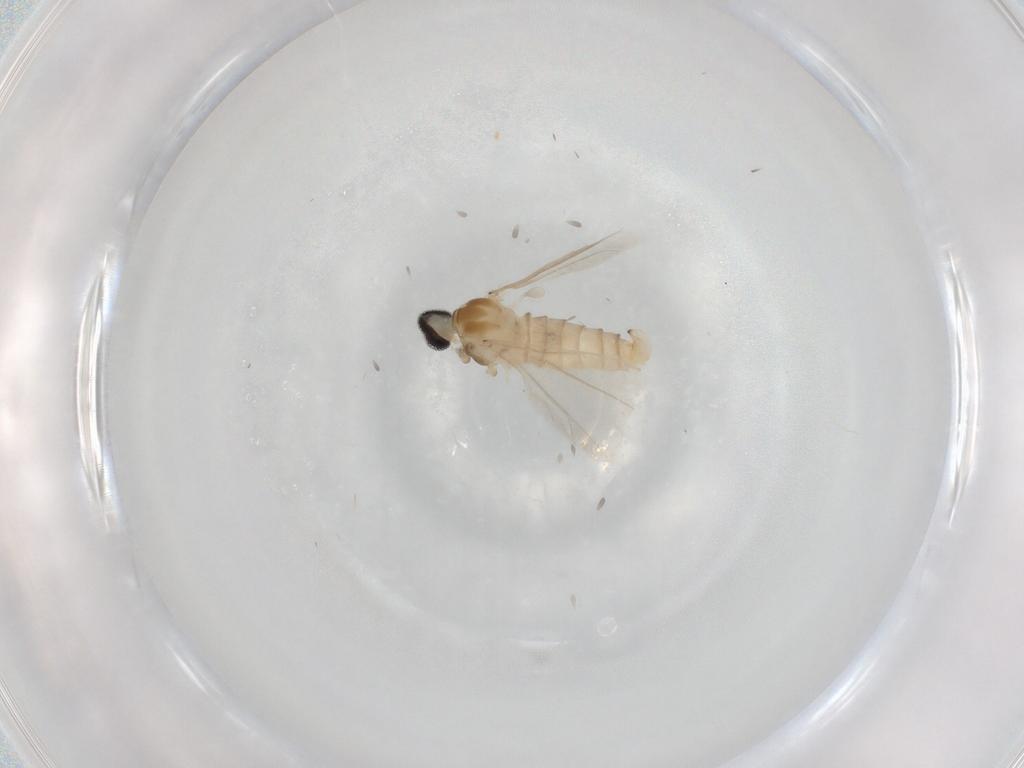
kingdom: Animalia
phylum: Arthropoda
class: Insecta
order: Diptera
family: Cecidomyiidae
